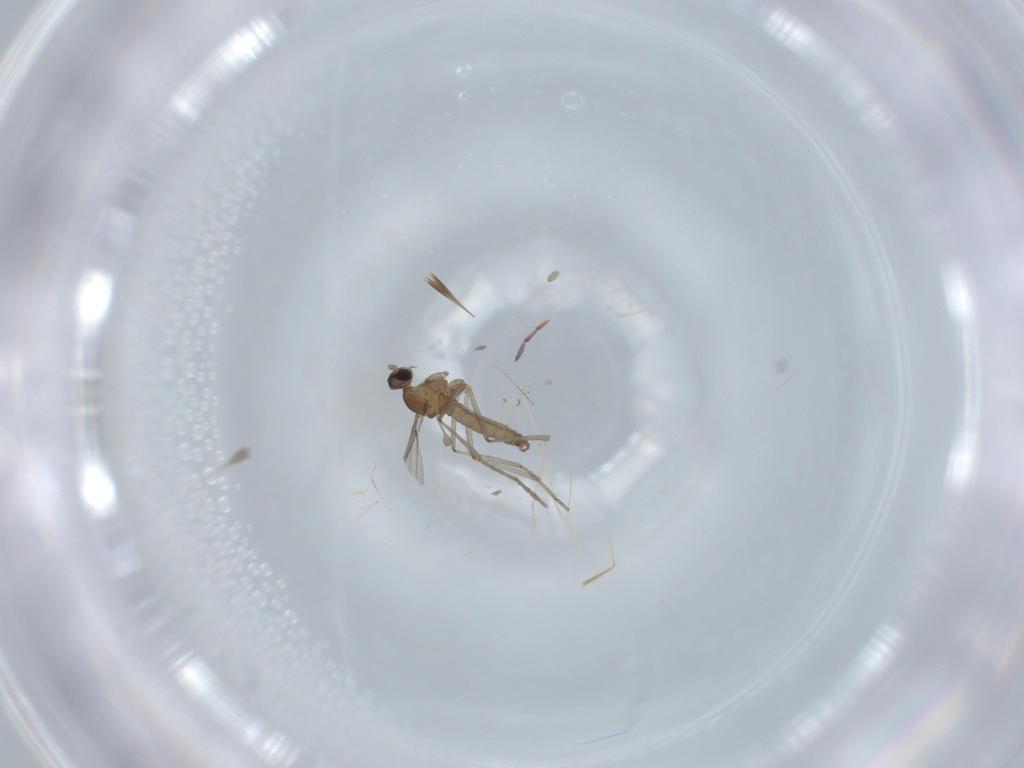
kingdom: Animalia
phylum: Arthropoda
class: Insecta
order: Diptera
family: Cecidomyiidae
